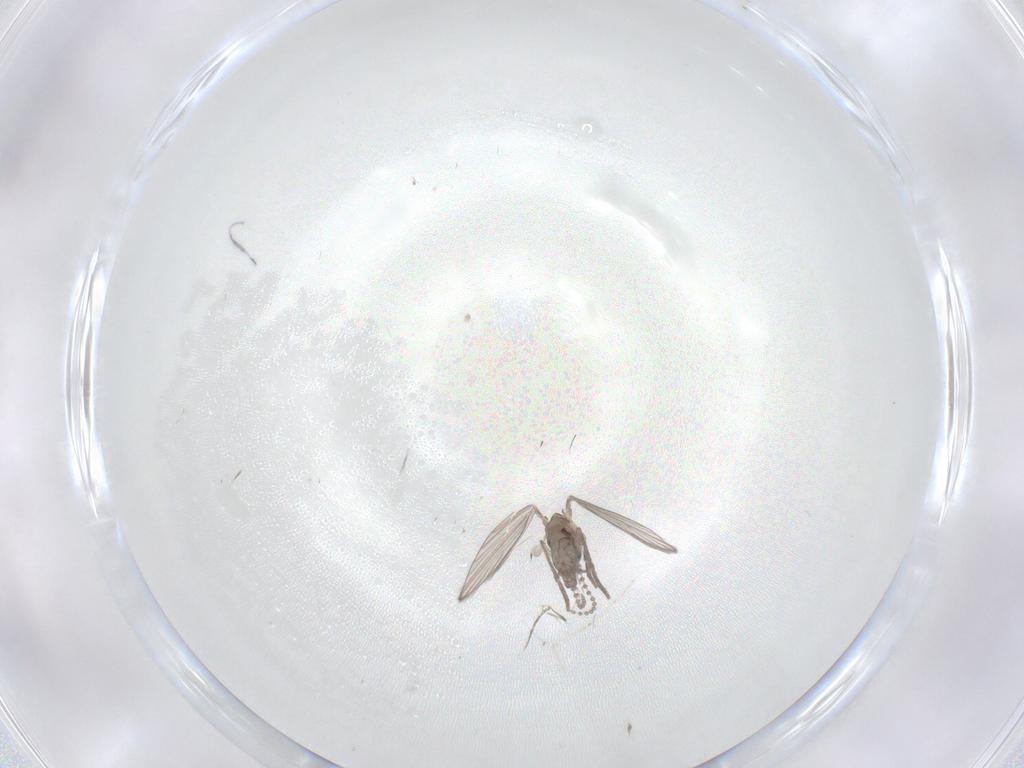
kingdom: Animalia
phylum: Arthropoda
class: Insecta
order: Diptera
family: Psychodidae
